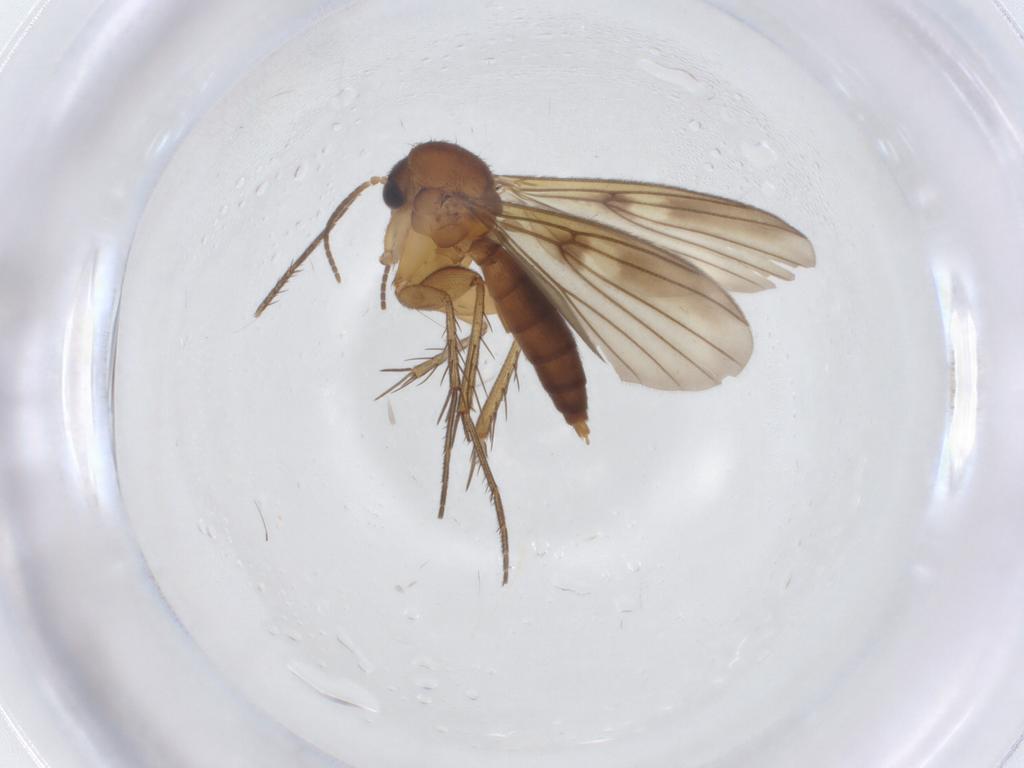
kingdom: Animalia
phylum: Arthropoda
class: Insecta
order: Diptera
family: Mycetophilidae
